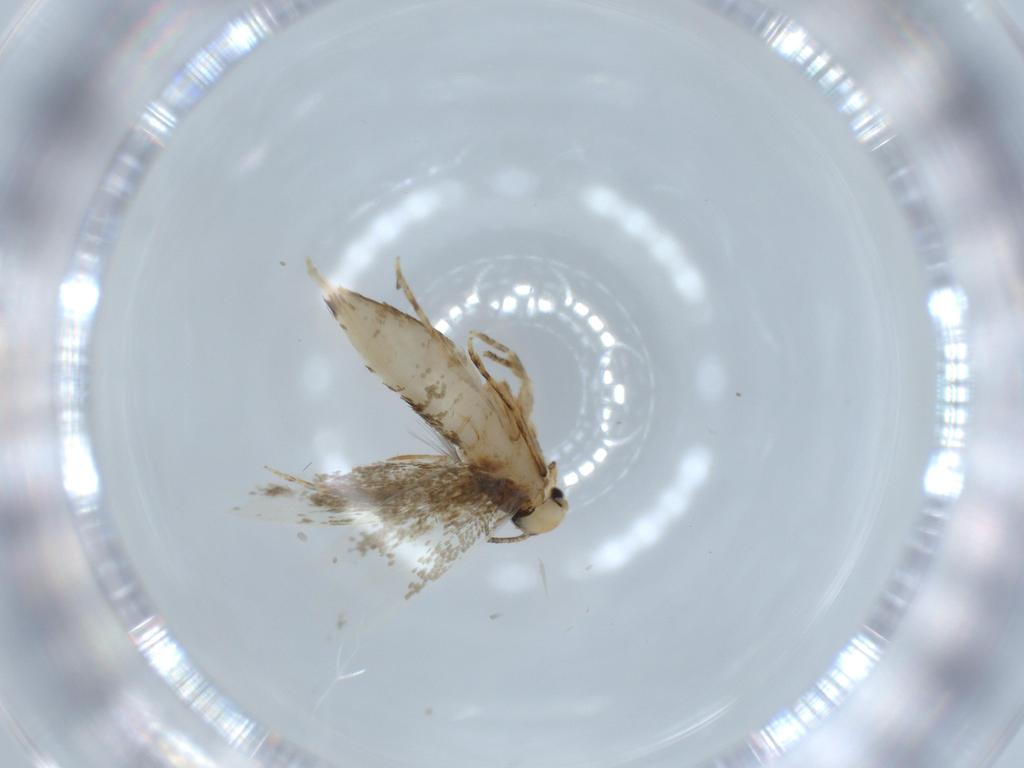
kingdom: Animalia
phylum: Arthropoda
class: Insecta
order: Lepidoptera
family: Tineidae
